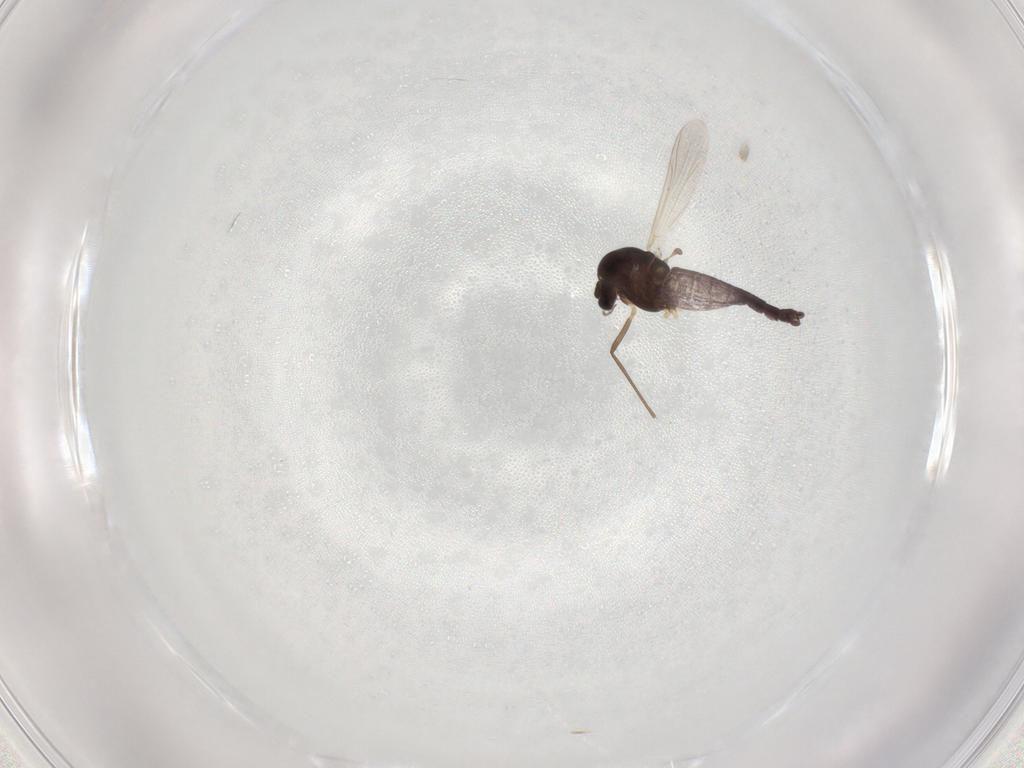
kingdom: Animalia
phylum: Arthropoda
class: Insecta
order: Diptera
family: Chironomidae
